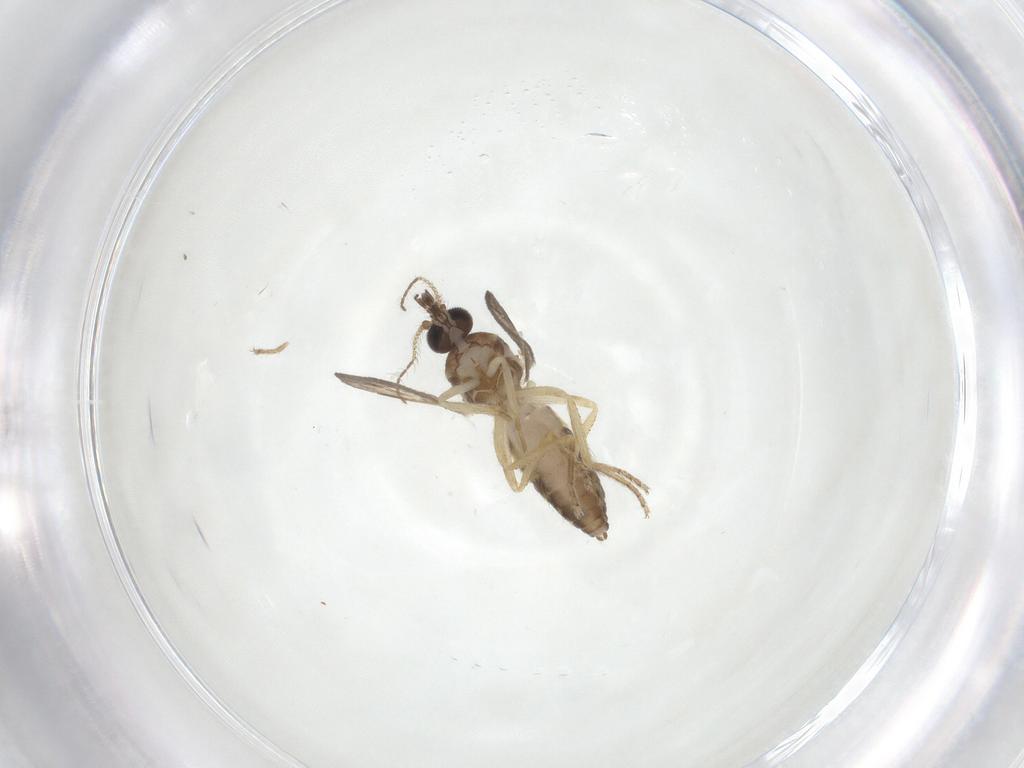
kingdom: Animalia
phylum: Arthropoda
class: Insecta
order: Diptera
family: Ceratopogonidae
